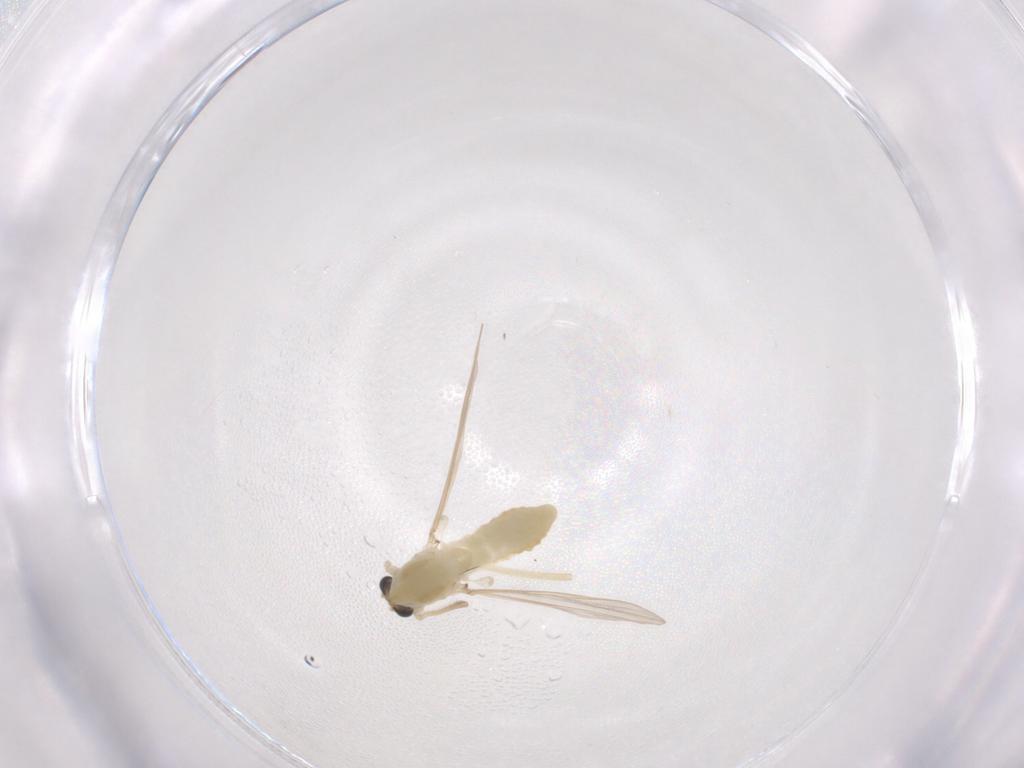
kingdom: Animalia
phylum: Arthropoda
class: Insecta
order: Diptera
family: Chironomidae
